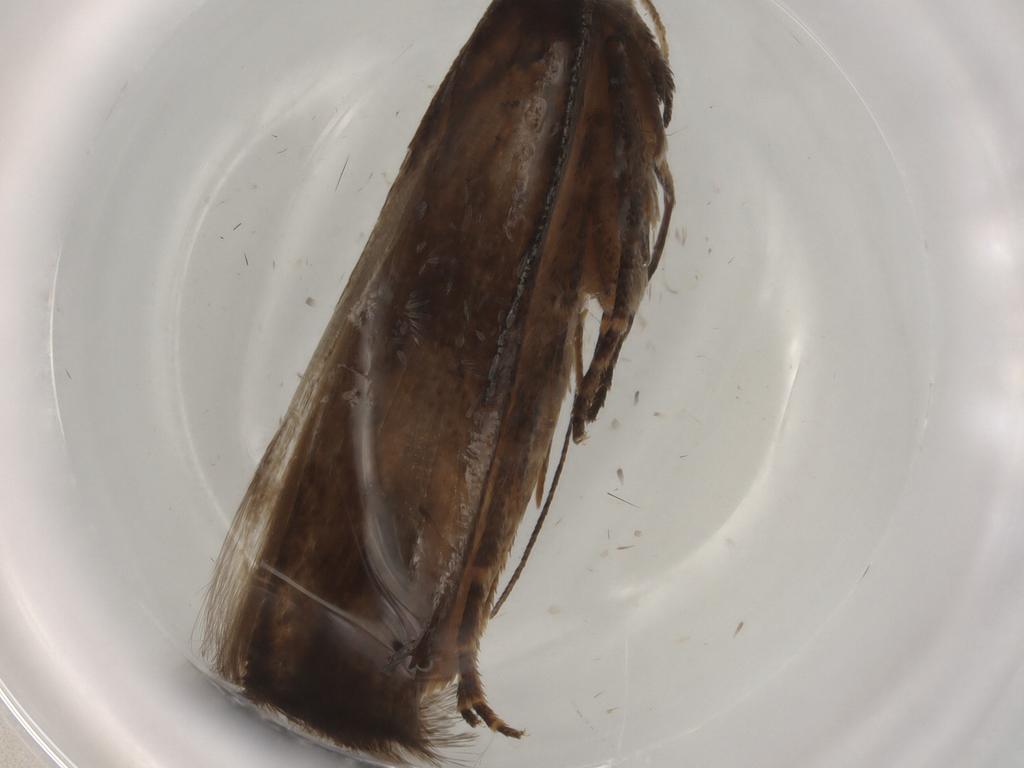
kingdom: Animalia
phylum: Arthropoda
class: Insecta
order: Lepidoptera
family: Gelechiidae
